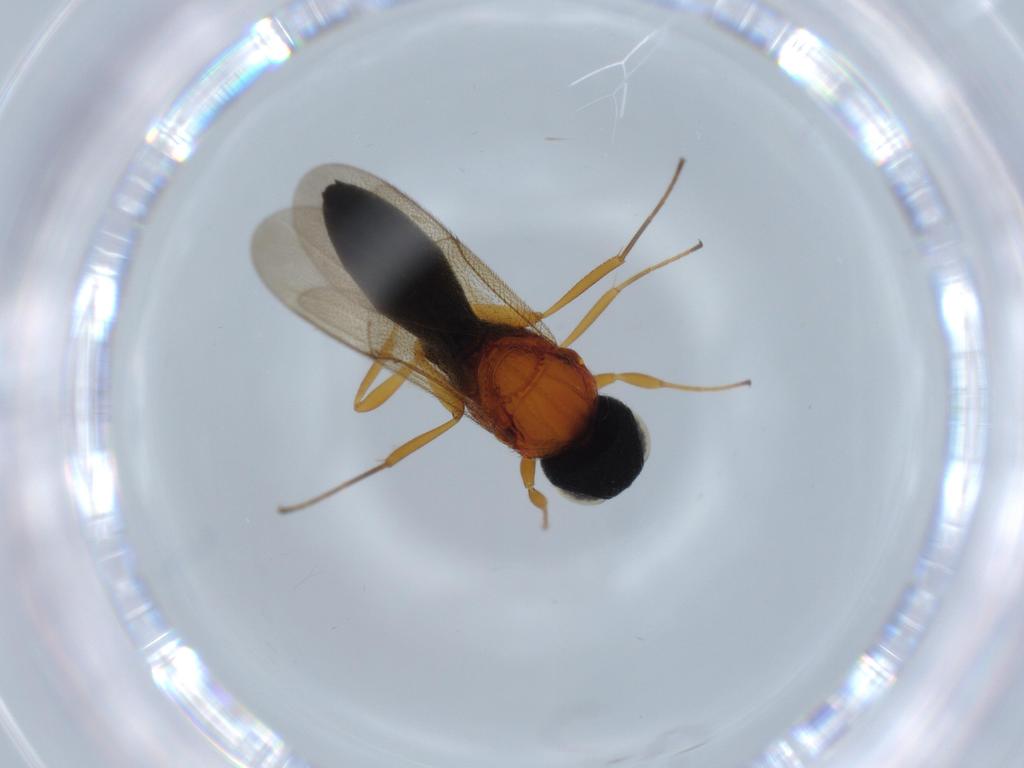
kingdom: Animalia
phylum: Arthropoda
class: Insecta
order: Hymenoptera
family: Scelionidae
